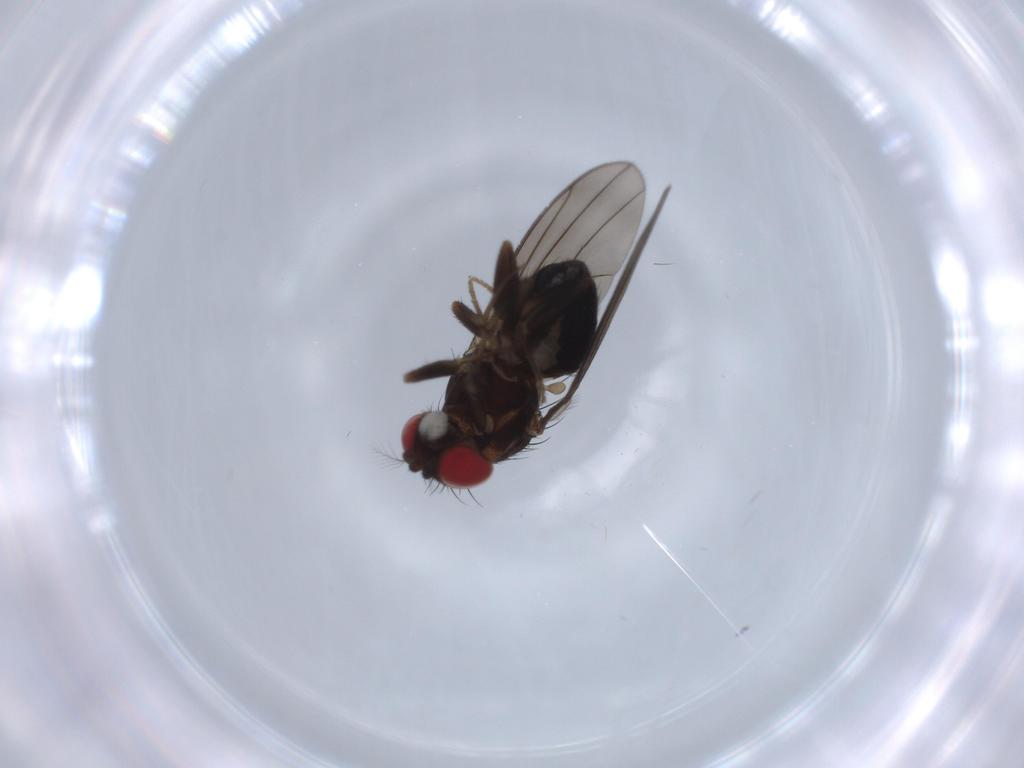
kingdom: Animalia
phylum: Arthropoda
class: Insecta
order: Diptera
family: Drosophilidae
